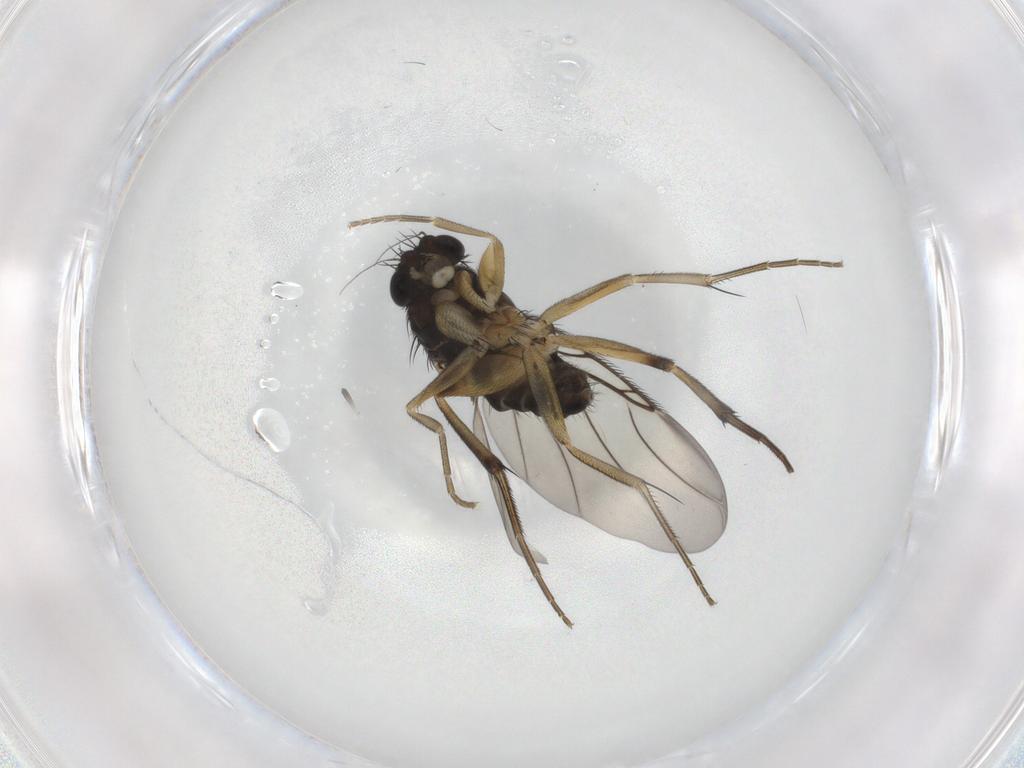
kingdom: Animalia
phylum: Arthropoda
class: Insecta
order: Diptera
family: Phoridae
